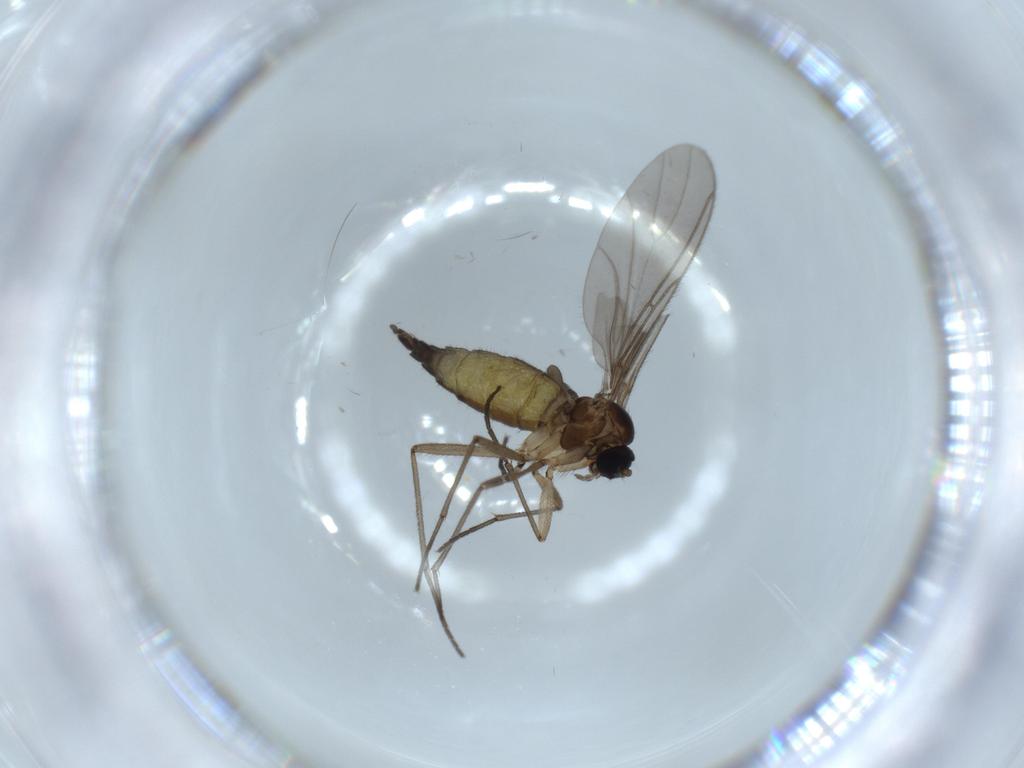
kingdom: Animalia
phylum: Arthropoda
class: Insecta
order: Diptera
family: Sciaridae
